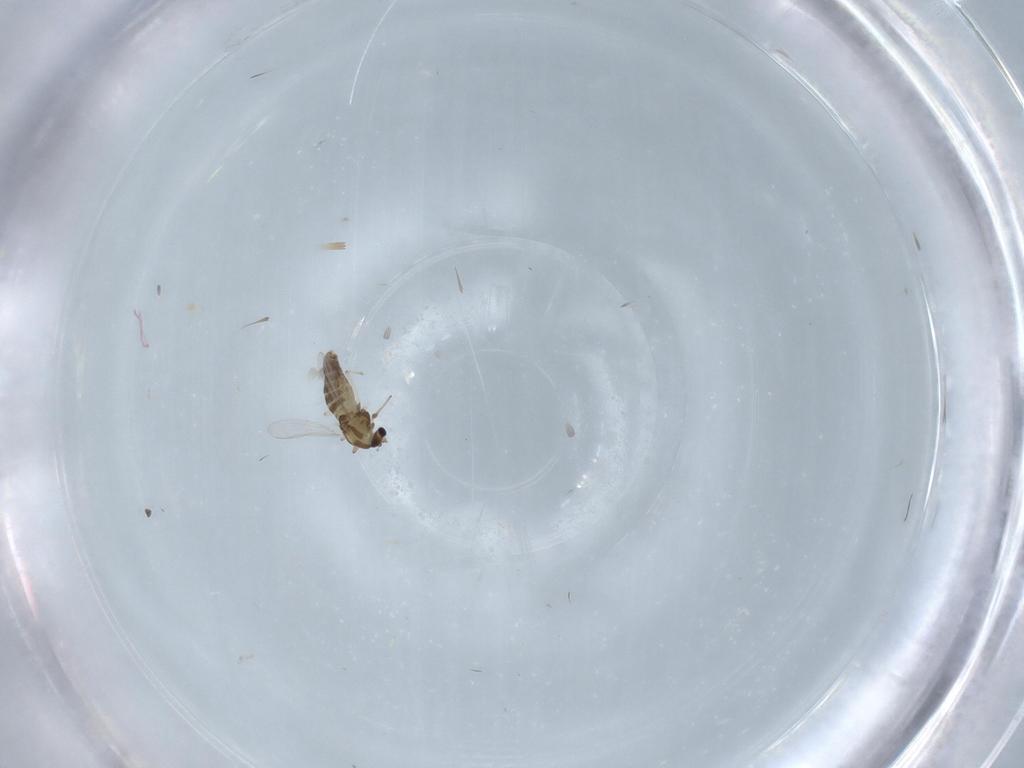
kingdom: Animalia
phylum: Arthropoda
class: Insecta
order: Diptera
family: Chironomidae
